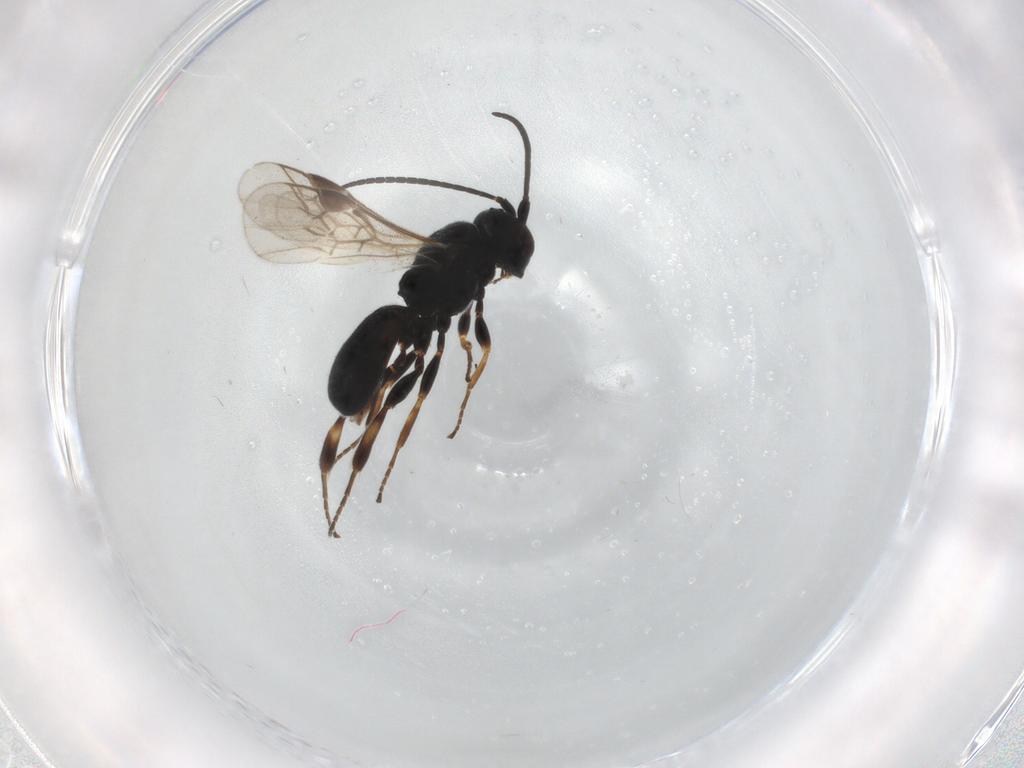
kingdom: Animalia
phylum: Arthropoda
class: Insecta
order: Hymenoptera
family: Braconidae
